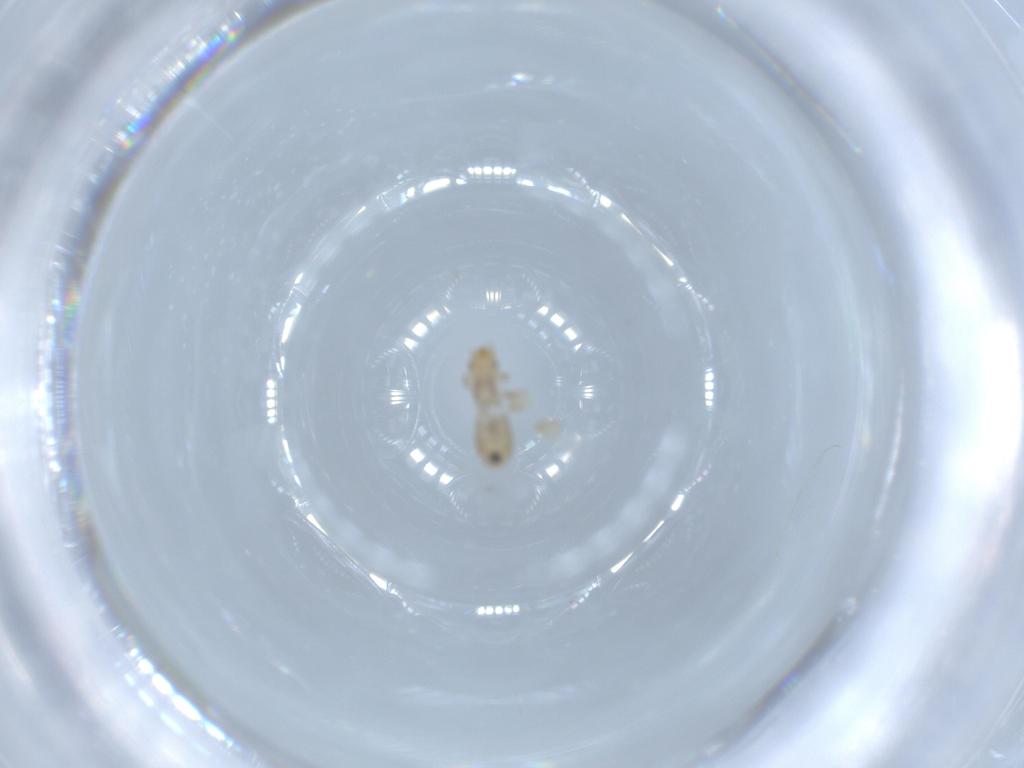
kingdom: Animalia
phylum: Arthropoda
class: Insecta
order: Psocodea
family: Liposcelididae
